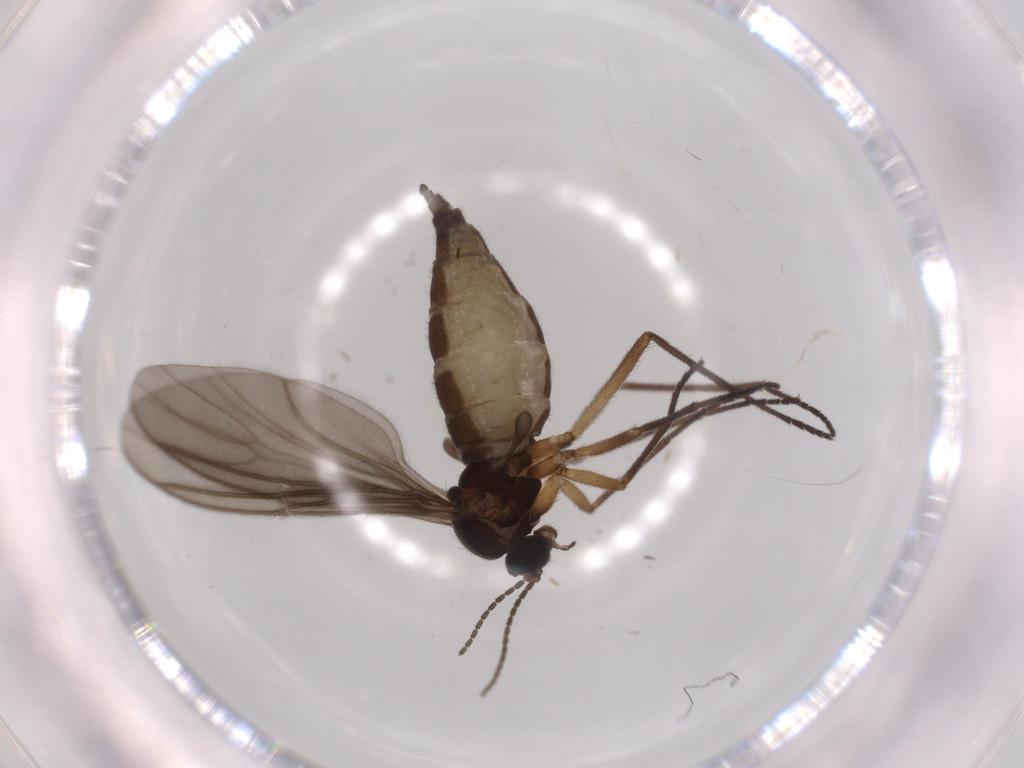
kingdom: Animalia
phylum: Arthropoda
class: Insecta
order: Diptera
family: Sciaridae
